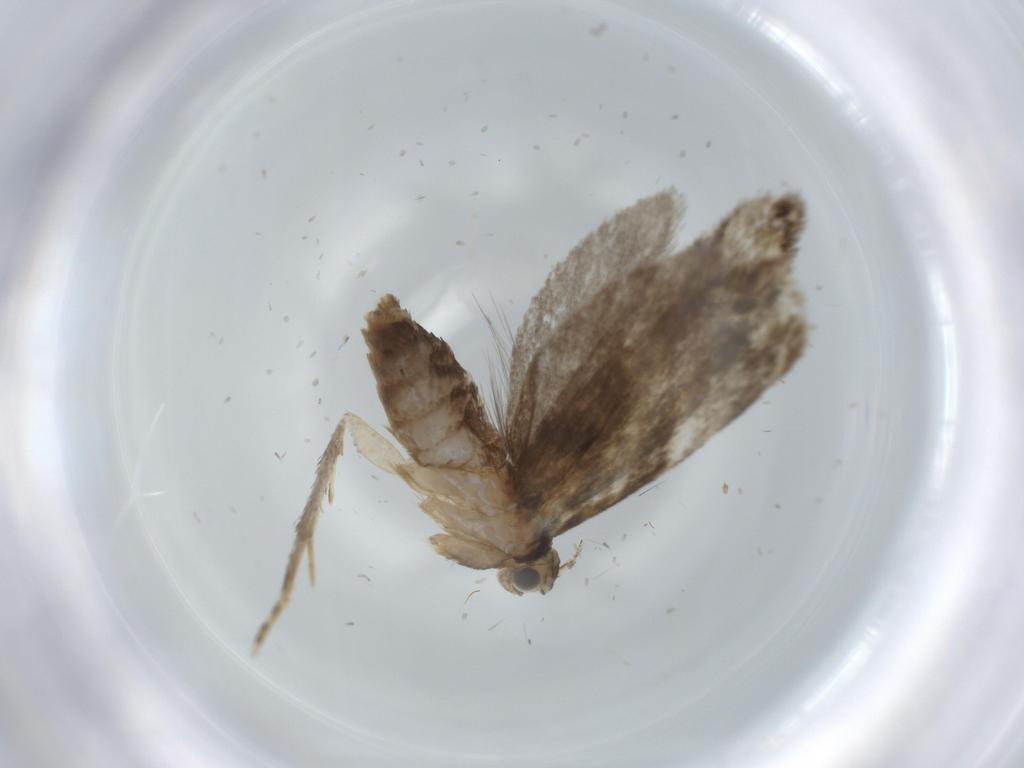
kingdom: Animalia
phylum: Arthropoda
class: Insecta
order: Lepidoptera
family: Tineidae
